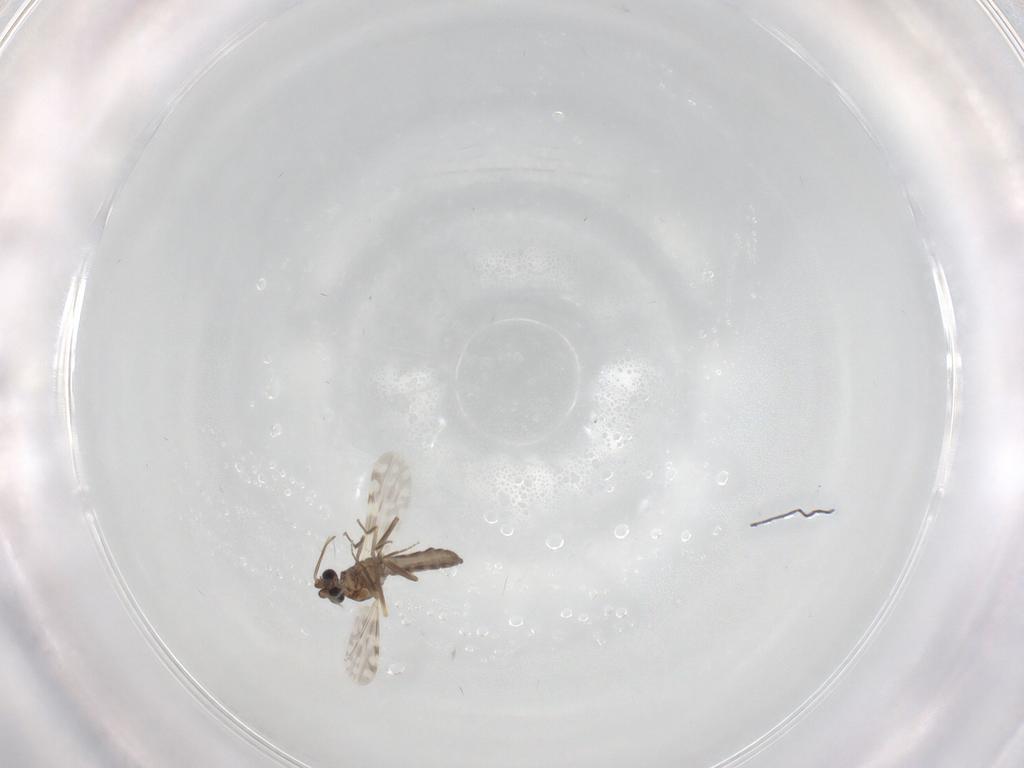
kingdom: Animalia
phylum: Arthropoda
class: Insecta
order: Diptera
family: Ceratopogonidae
